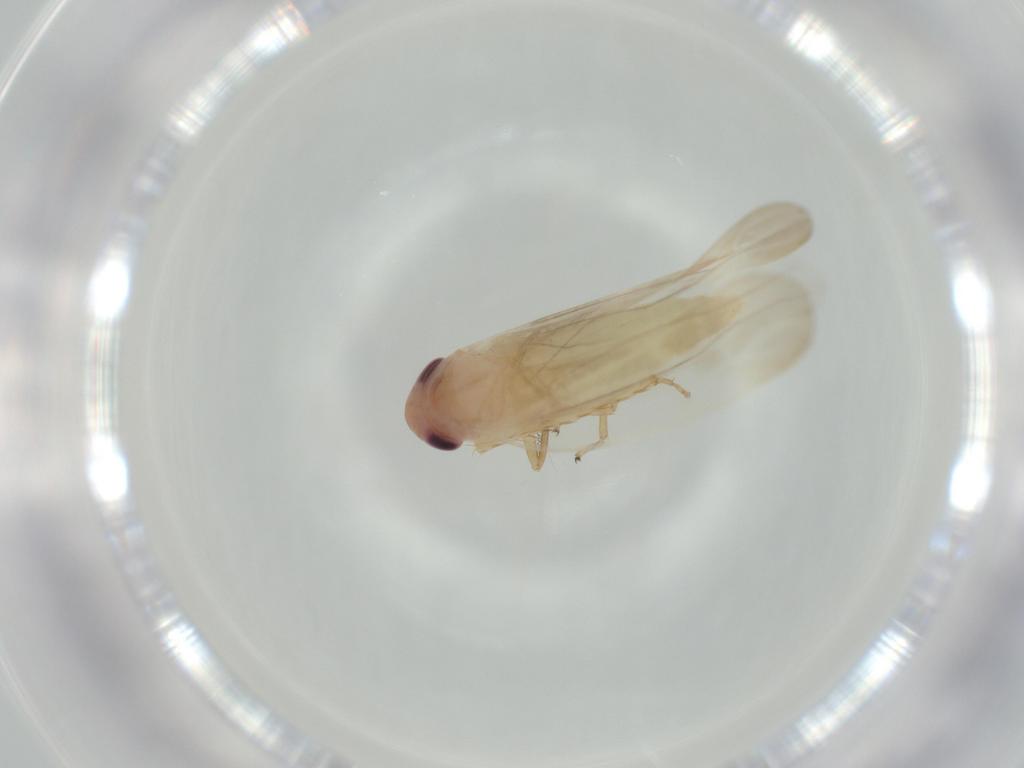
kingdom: Animalia
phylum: Arthropoda
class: Insecta
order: Hemiptera
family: Cicadellidae
